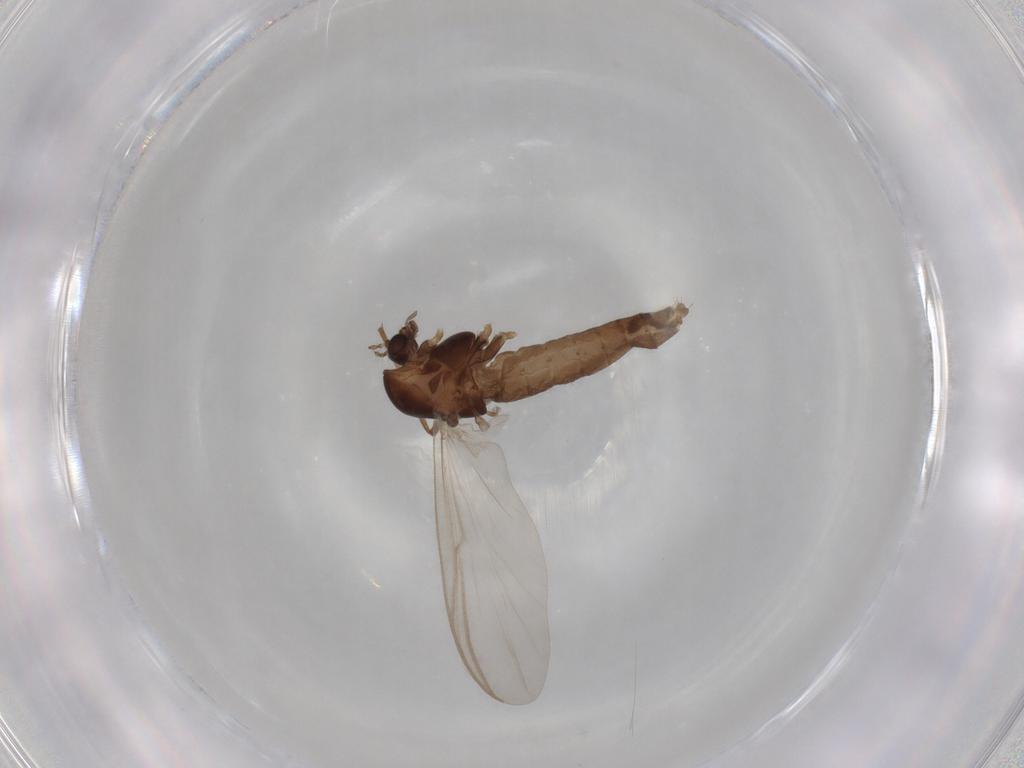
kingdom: Animalia
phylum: Arthropoda
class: Insecta
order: Diptera
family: Chironomidae
